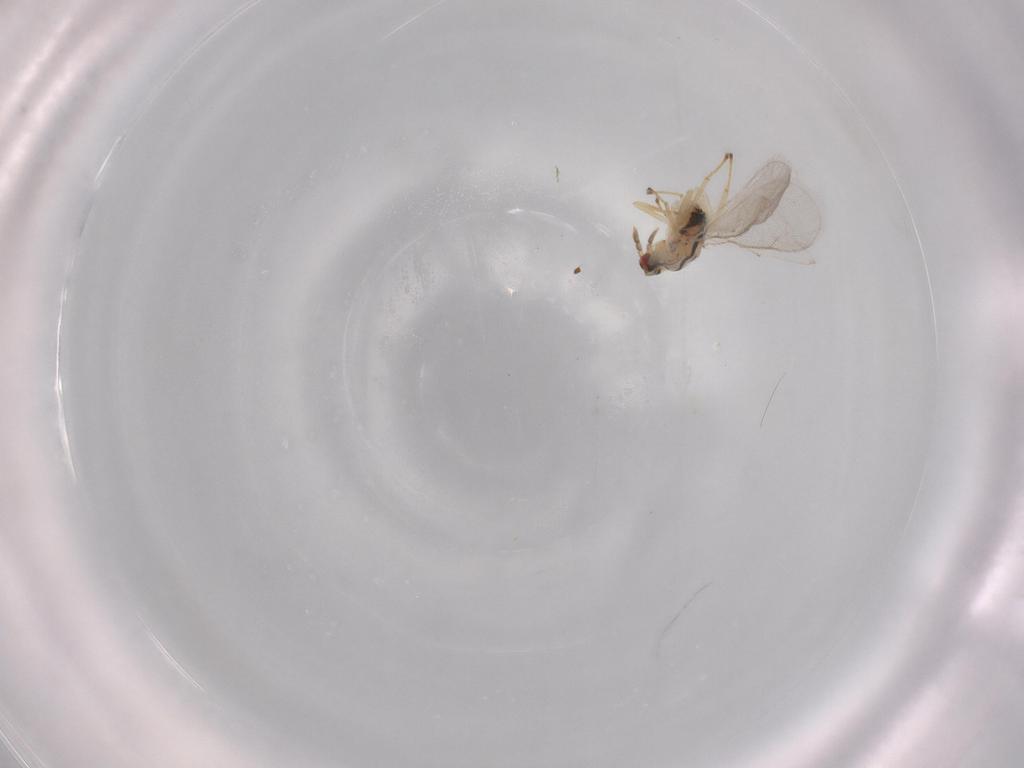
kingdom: Animalia
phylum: Arthropoda
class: Insecta
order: Hymenoptera
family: Eulophidae
